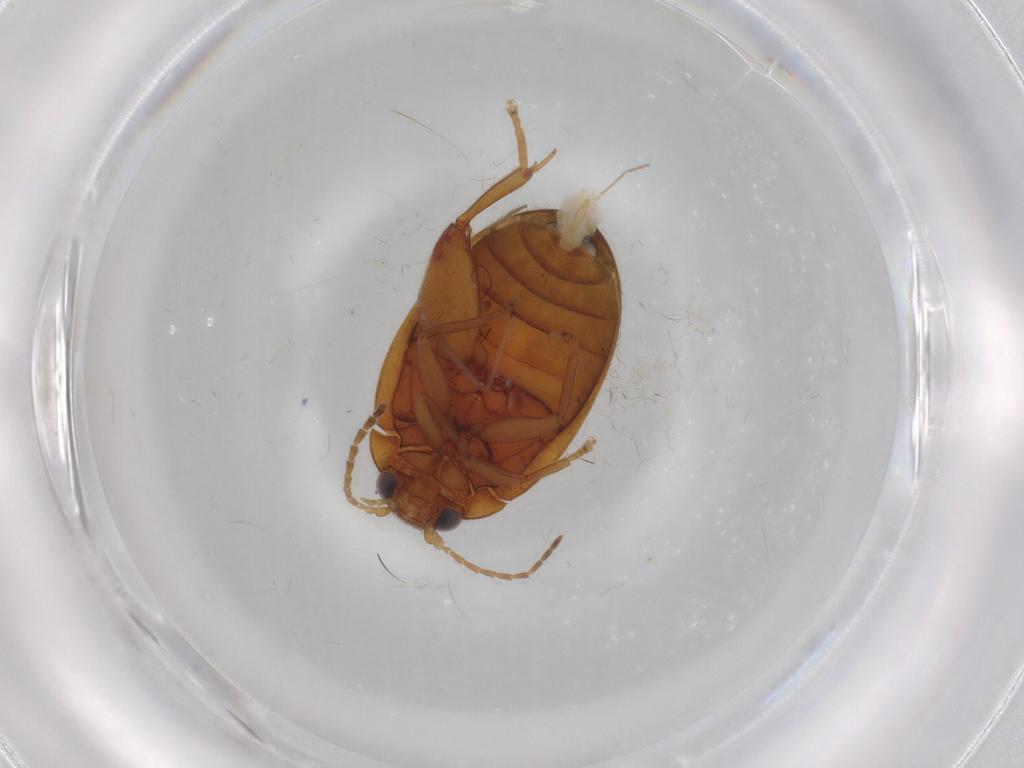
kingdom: Animalia
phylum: Arthropoda
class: Insecta
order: Coleoptera
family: Scirtidae
